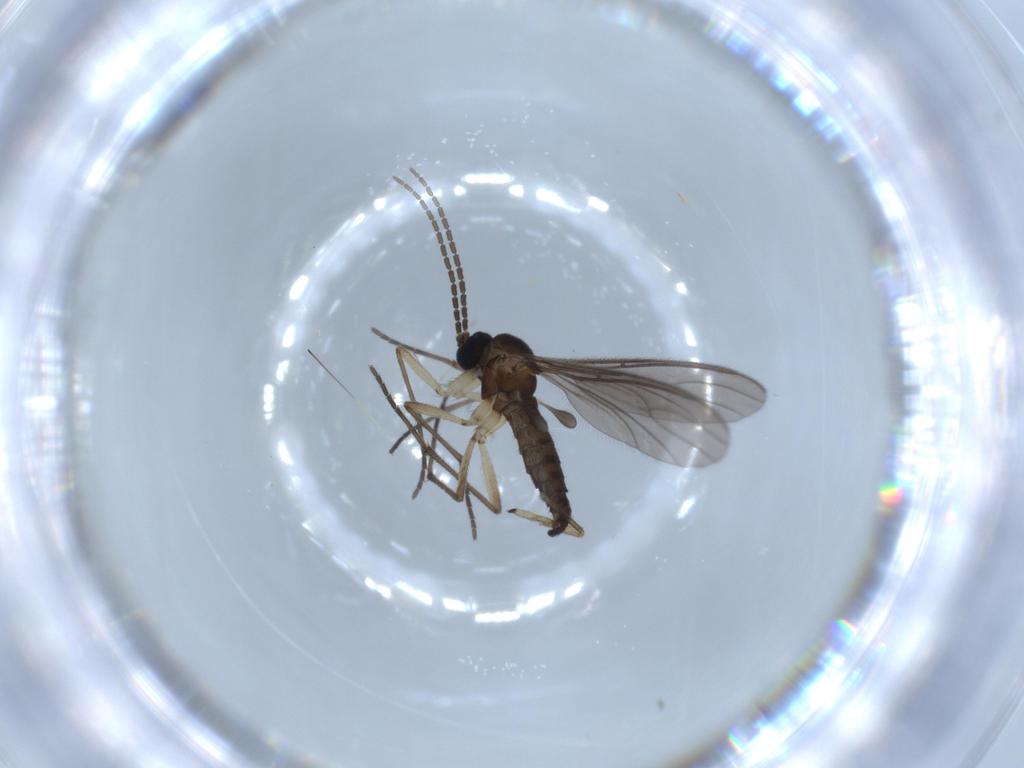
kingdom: Animalia
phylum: Arthropoda
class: Insecta
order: Diptera
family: Sciaridae
